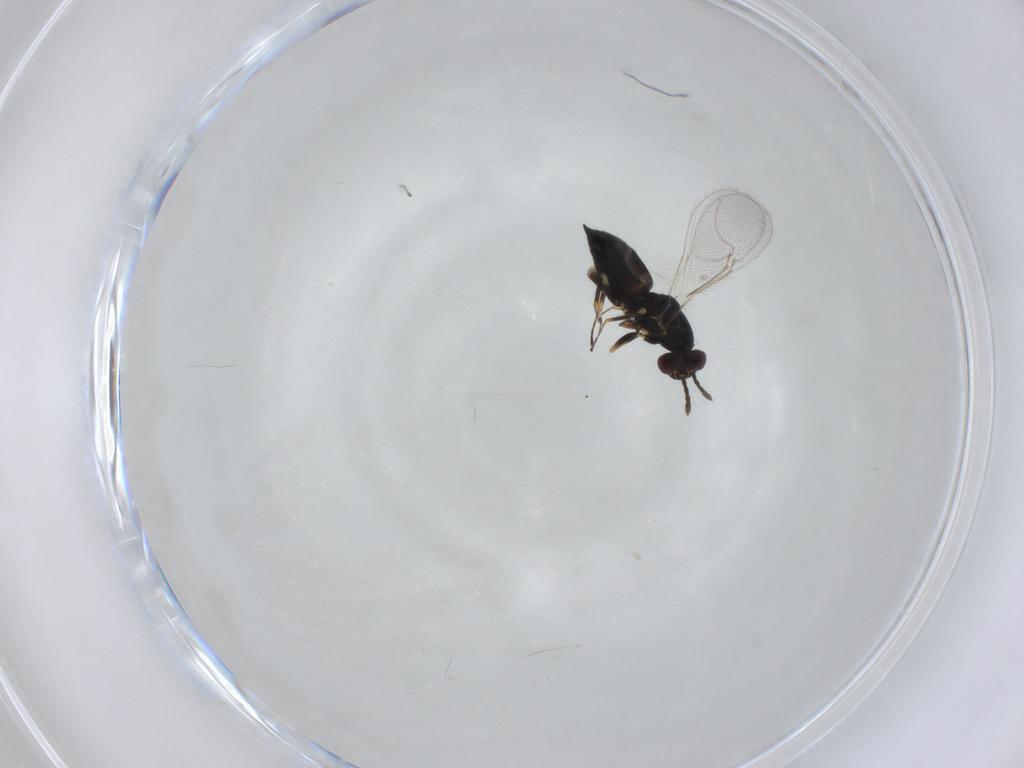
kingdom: Animalia
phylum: Arthropoda
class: Insecta
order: Hymenoptera
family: Eulophidae
